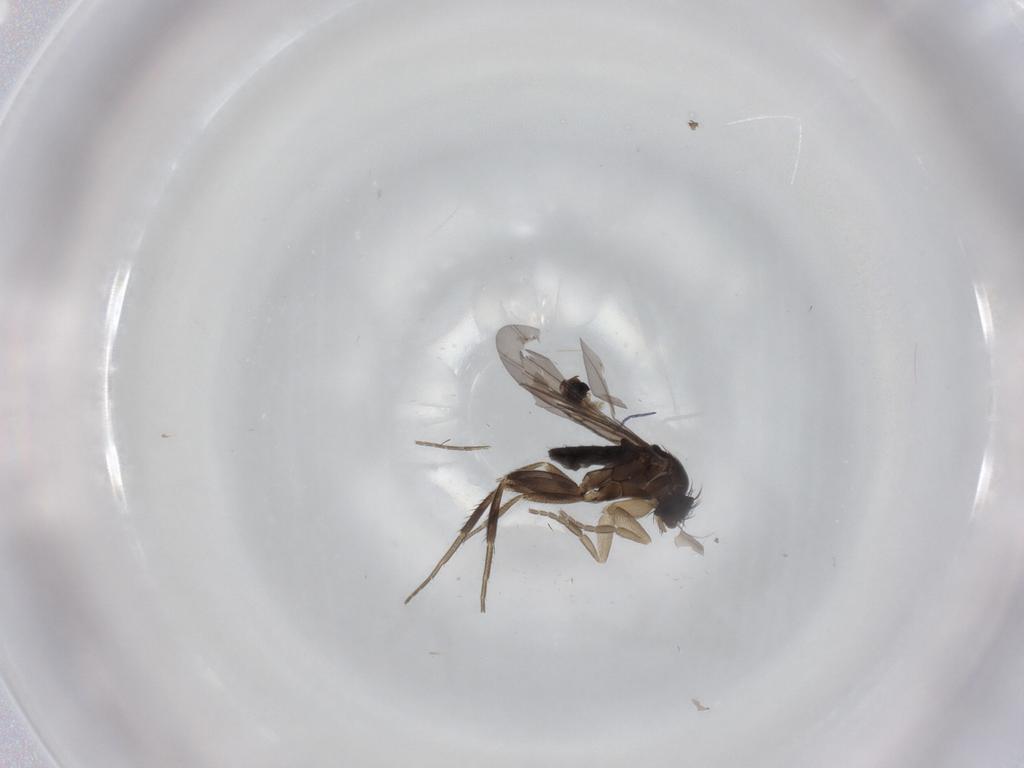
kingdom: Animalia
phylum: Arthropoda
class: Insecta
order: Diptera
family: Phoridae
